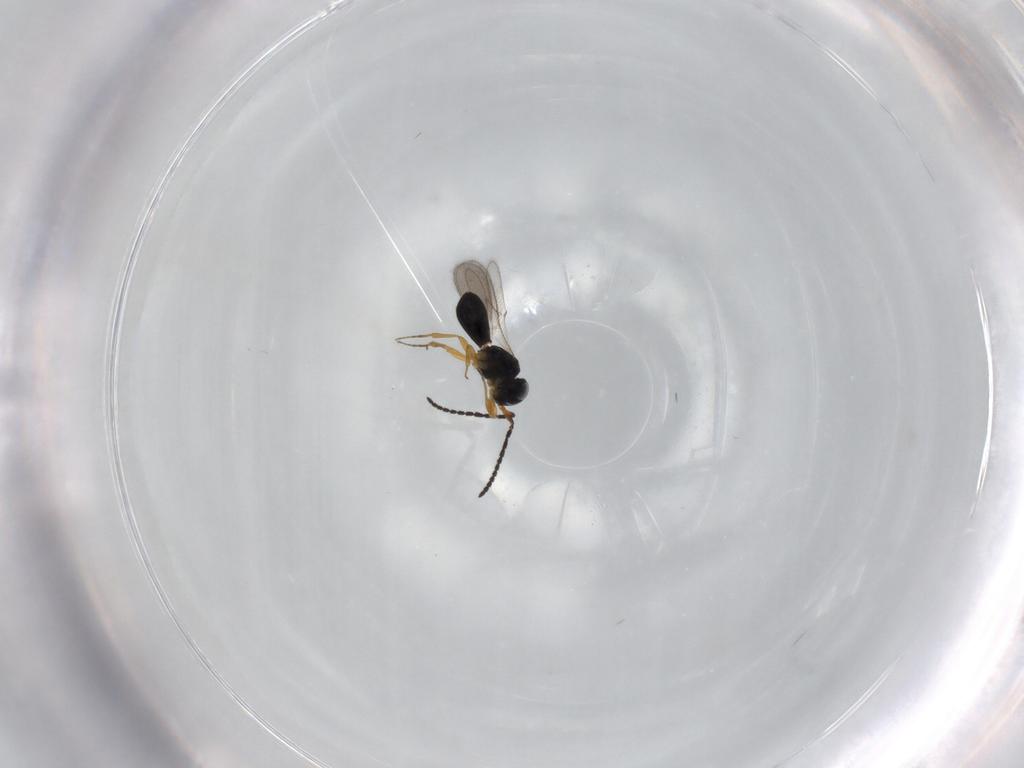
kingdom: Animalia
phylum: Arthropoda
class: Insecta
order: Hymenoptera
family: Scelionidae
